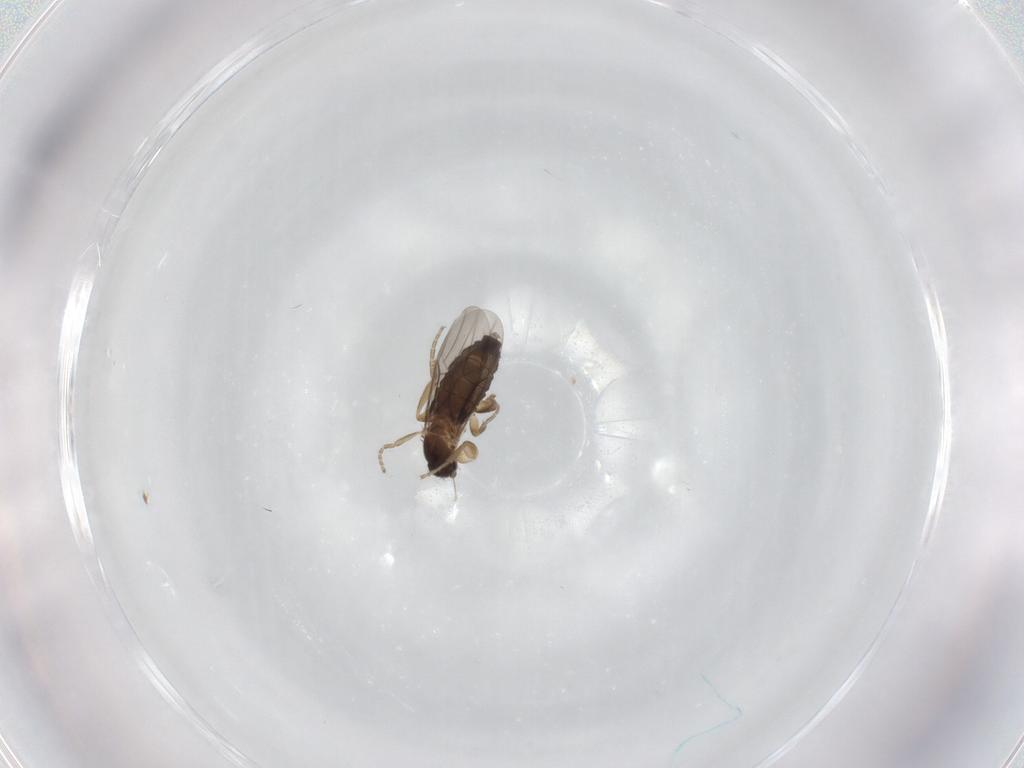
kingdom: Animalia
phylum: Arthropoda
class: Insecta
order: Diptera
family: Phoridae
